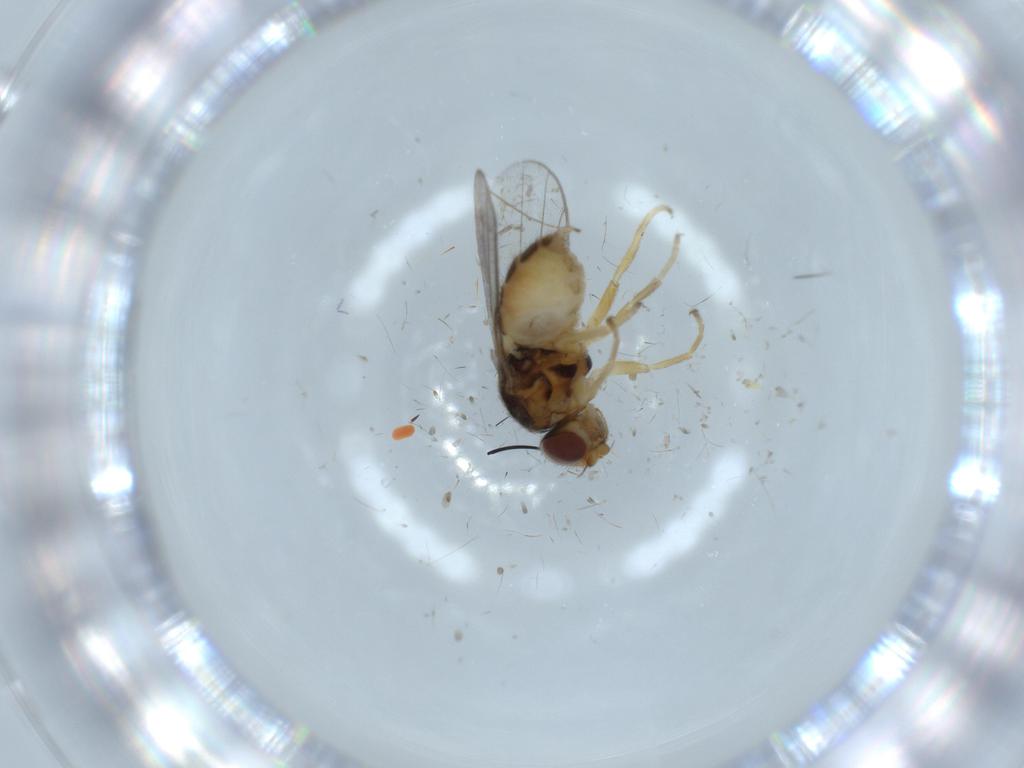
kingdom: Animalia
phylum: Arthropoda
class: Insecta
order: Diptera
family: Chloropidae
